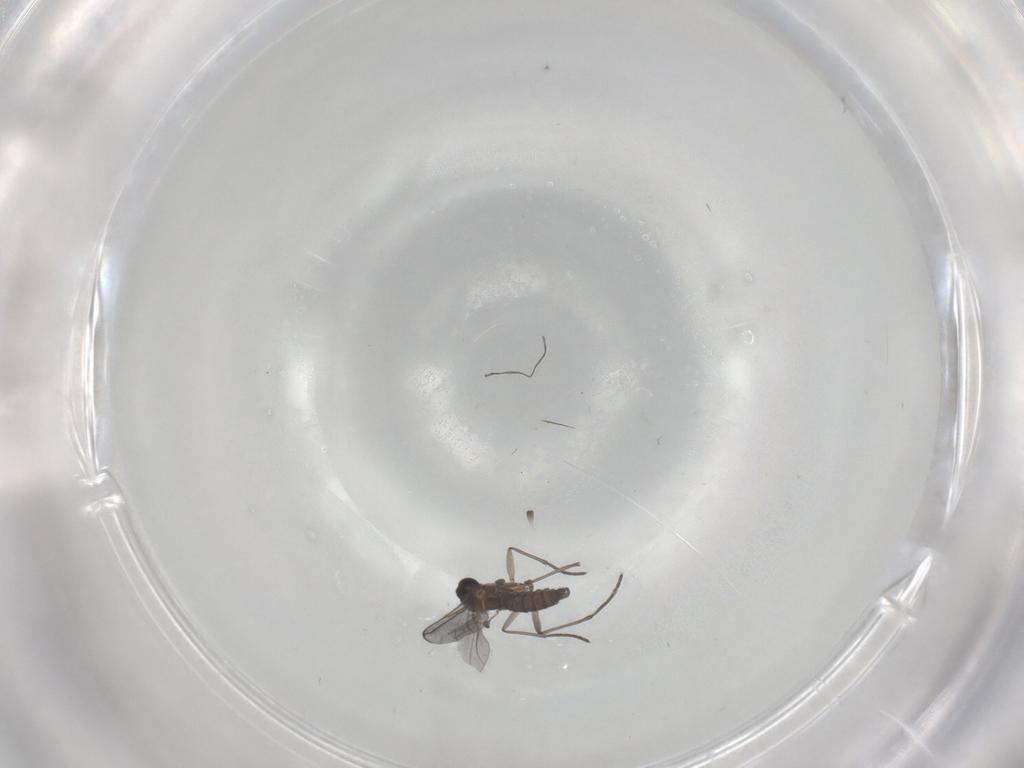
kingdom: Animalia
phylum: Arthropoda
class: Insecta
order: Diptera
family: Sciaridae
